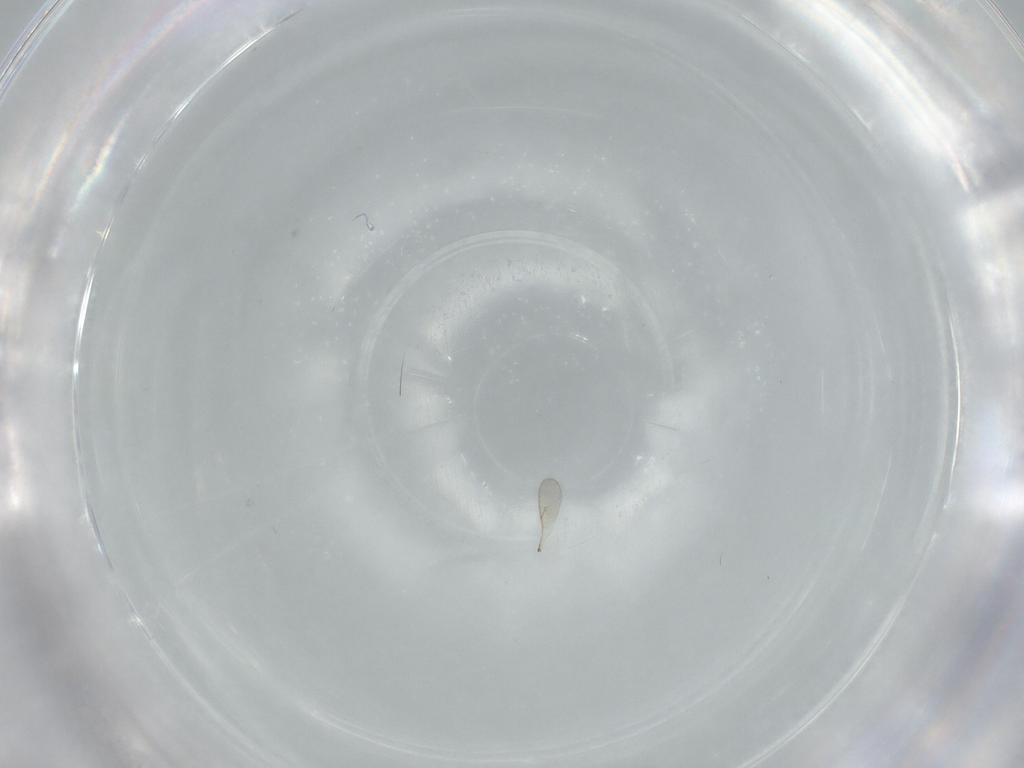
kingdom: Animalia
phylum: Arthropoda
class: Insecta
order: Hymenoptera
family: Scelionidae
